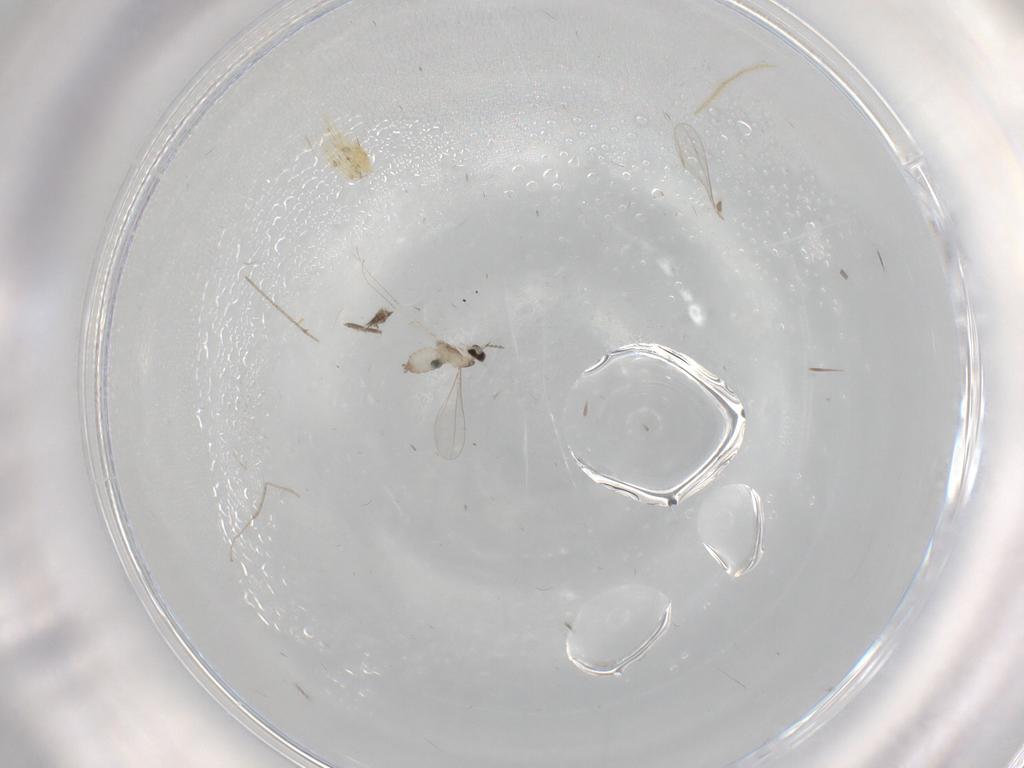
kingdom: Animalia
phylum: Arthropoda
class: Insecta
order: Diptera
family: Cecidomyiidae
